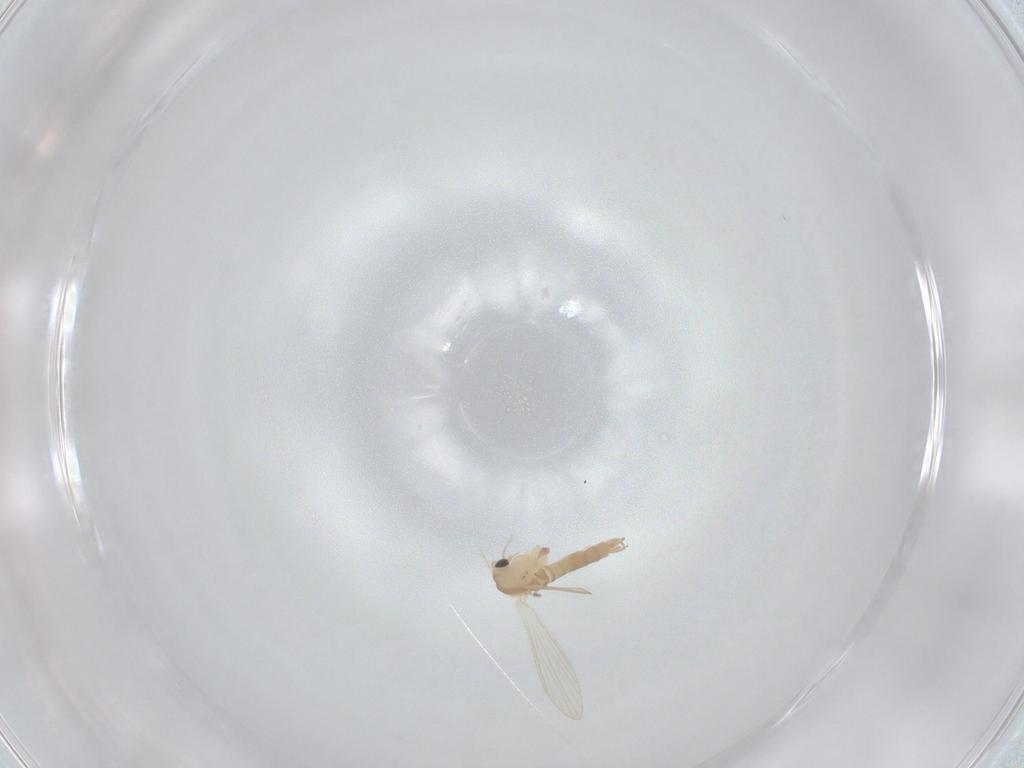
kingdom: Animalia
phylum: Arthropoda
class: Insecta
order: Diptera
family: Psychodidae
